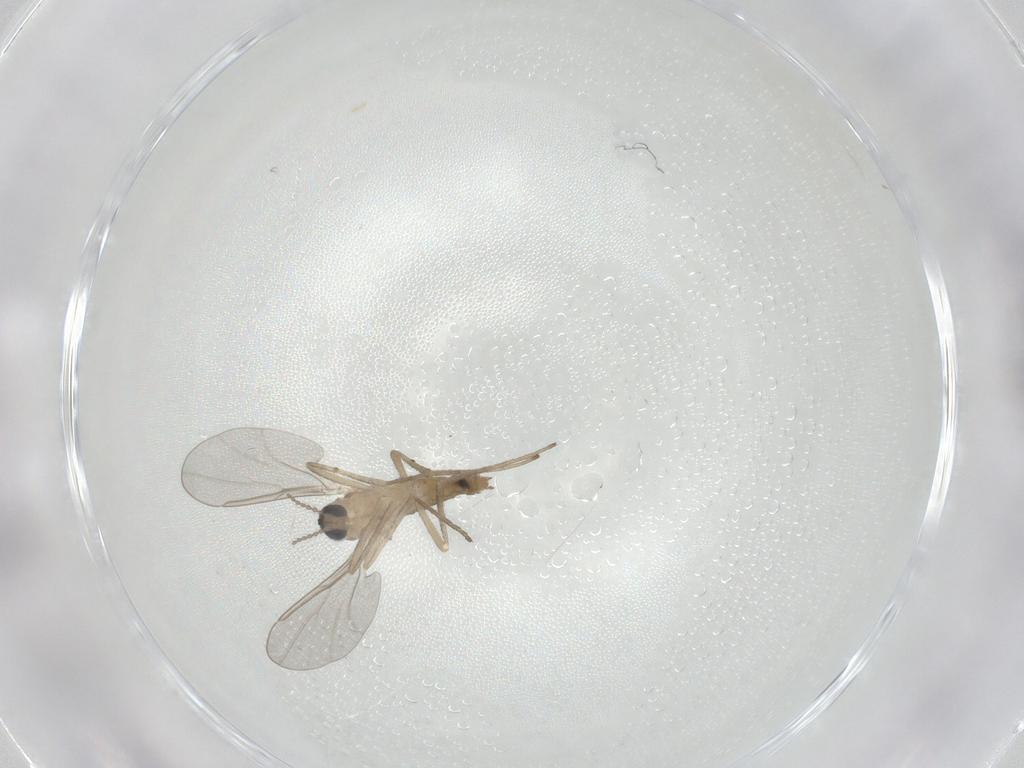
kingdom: Animalia
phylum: Arthropoda
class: Insecta
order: Diptera
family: Cecidomyiidae
